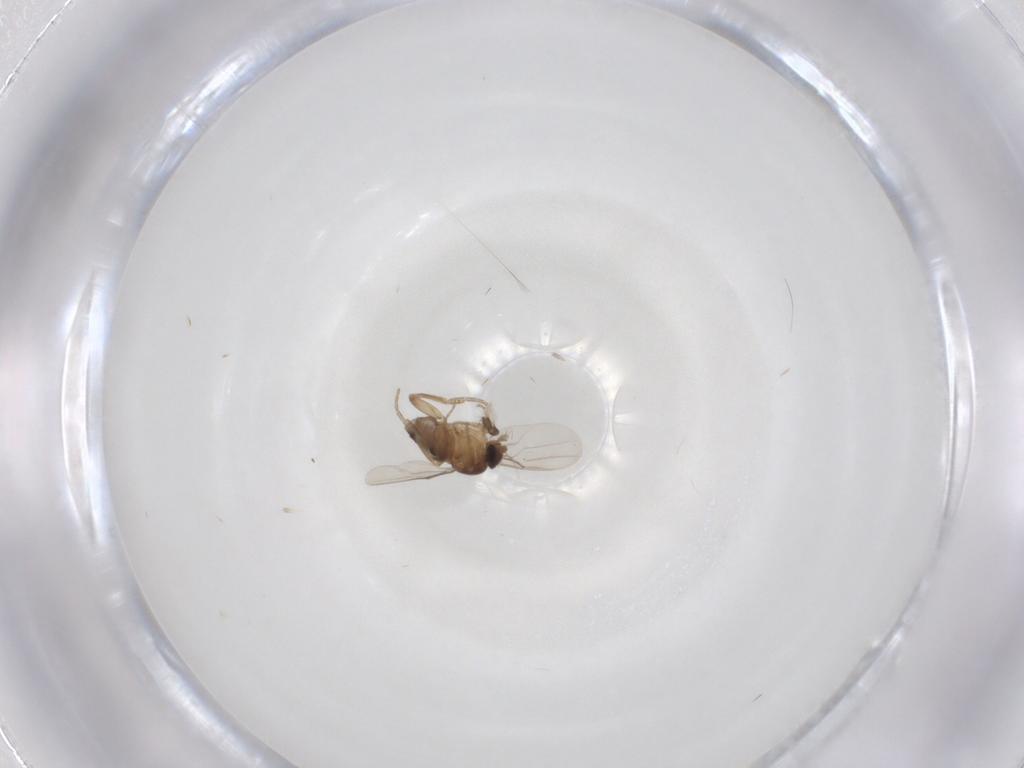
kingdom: Animalia
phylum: Arthropoda
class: Insecta
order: Diptera
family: Phoridae
